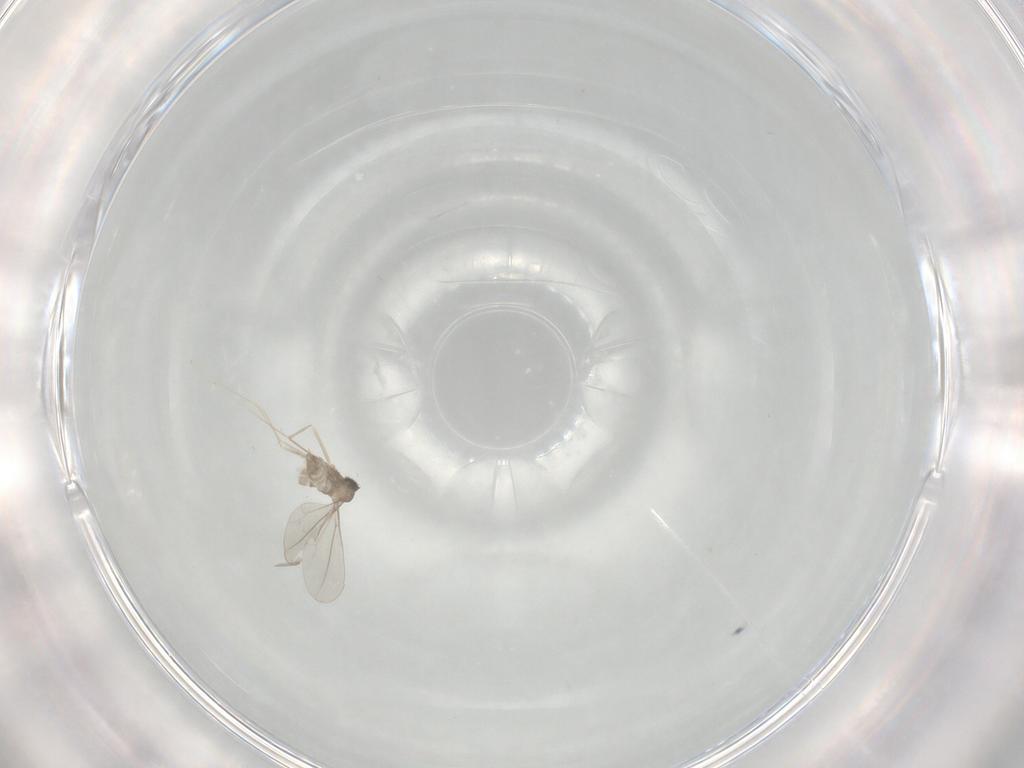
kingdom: Animalia
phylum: Arthropoda
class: Insecta
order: Diptera
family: Cecidomyiidae
